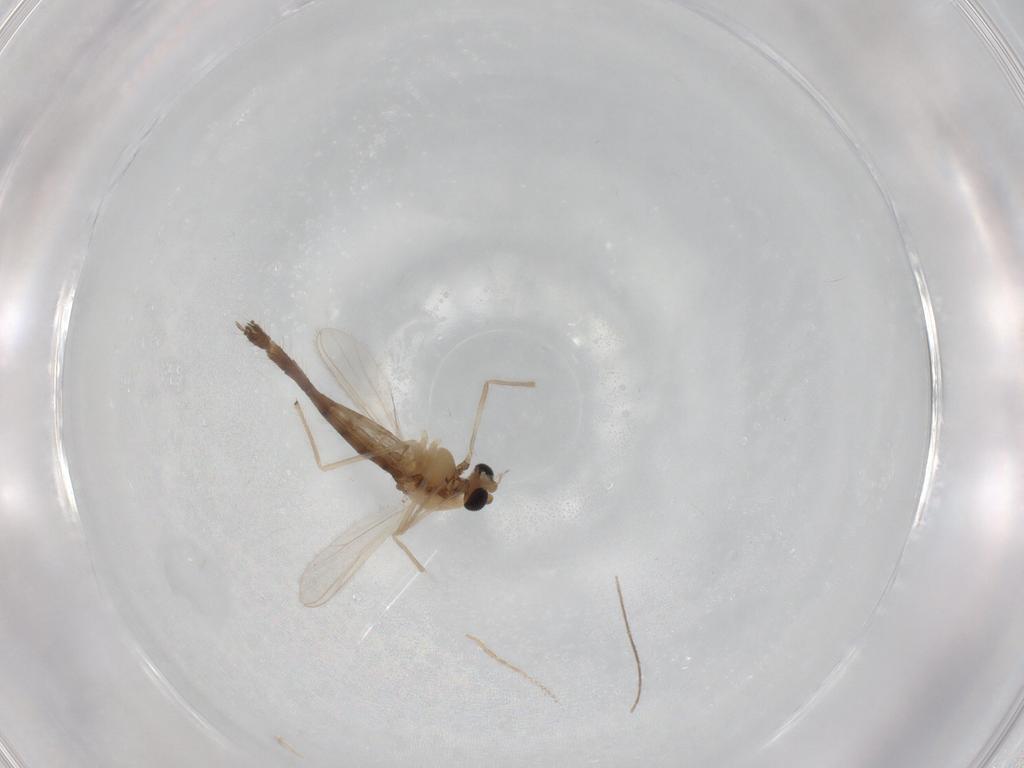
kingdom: Animalia
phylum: Arthropoda
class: Insecta
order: Diptera
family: Chironomidae
